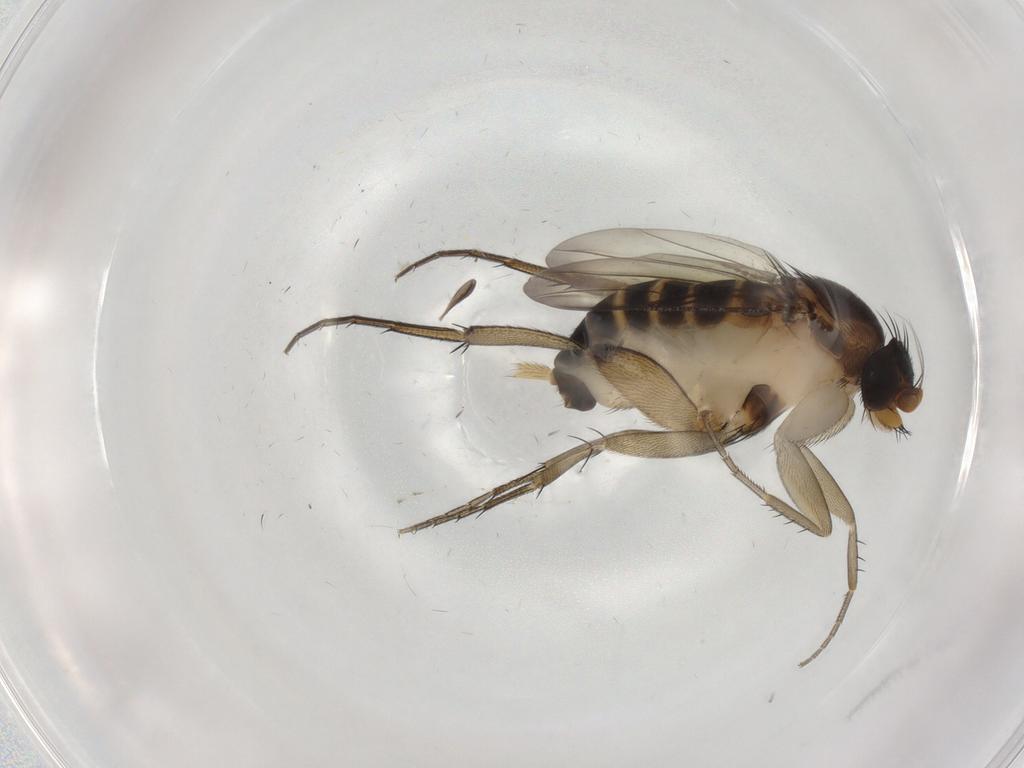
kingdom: Animalia
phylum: Arthropoda
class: Insecta
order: Diptera
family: Phoridae
